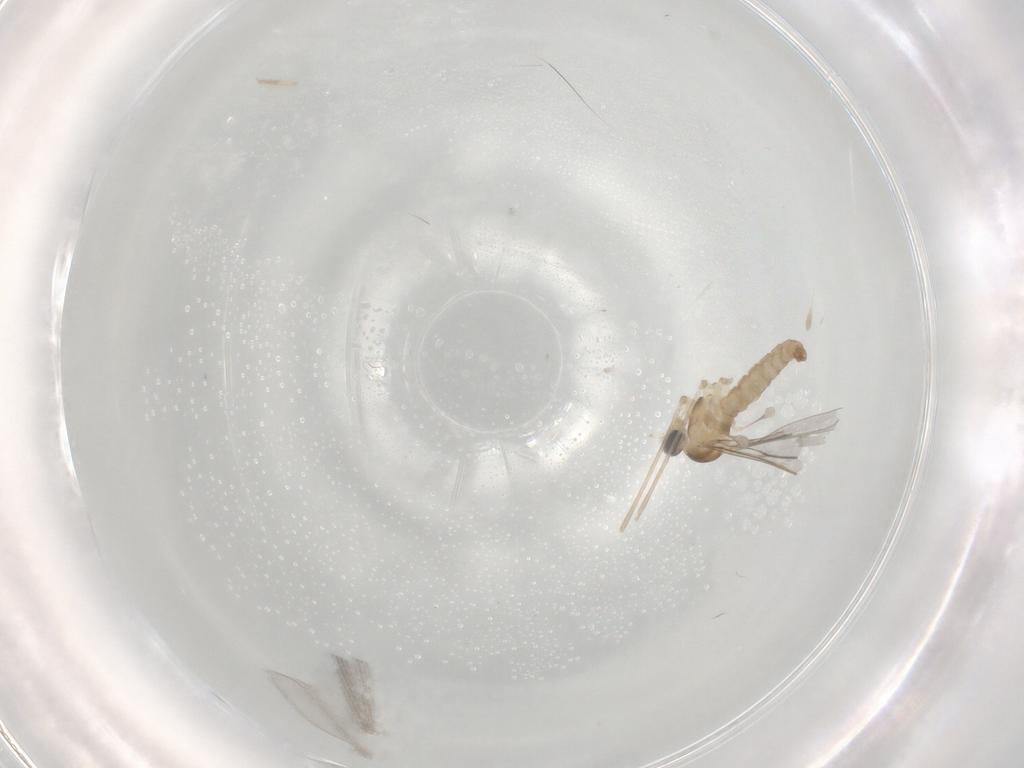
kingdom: Animalia
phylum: Arthropoda
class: Insecta
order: Diptera
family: Cecidomyiidae
